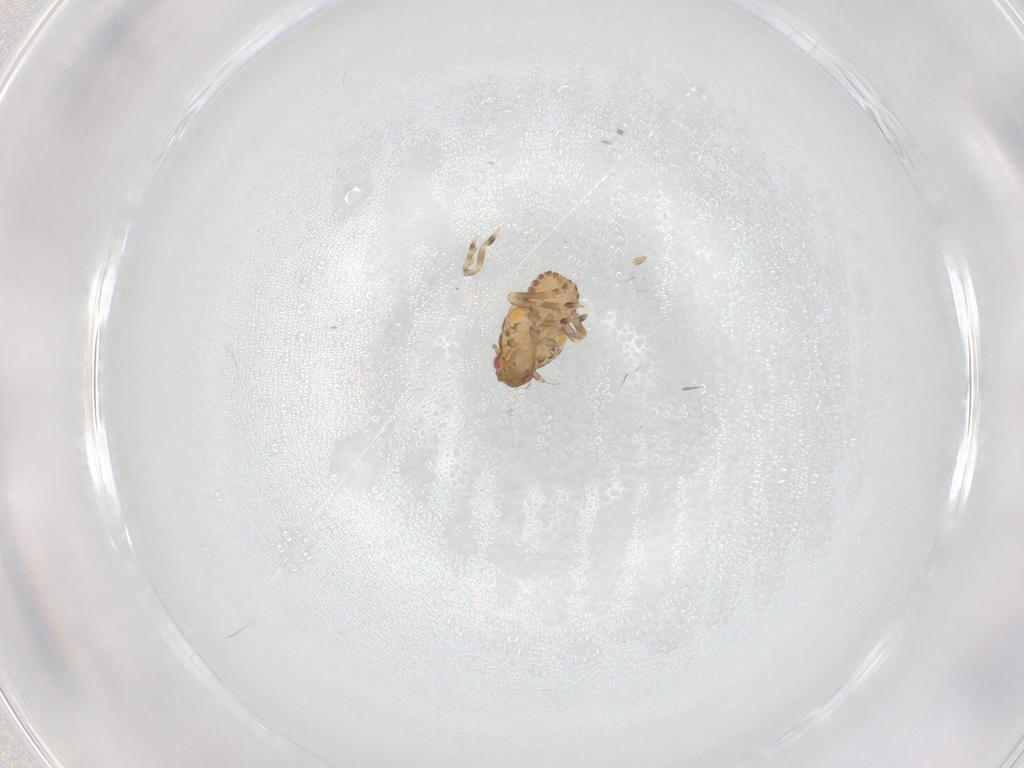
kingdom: Animalia
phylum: Arthropoda
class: Insecta
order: Hemiptera
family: Flatidae
